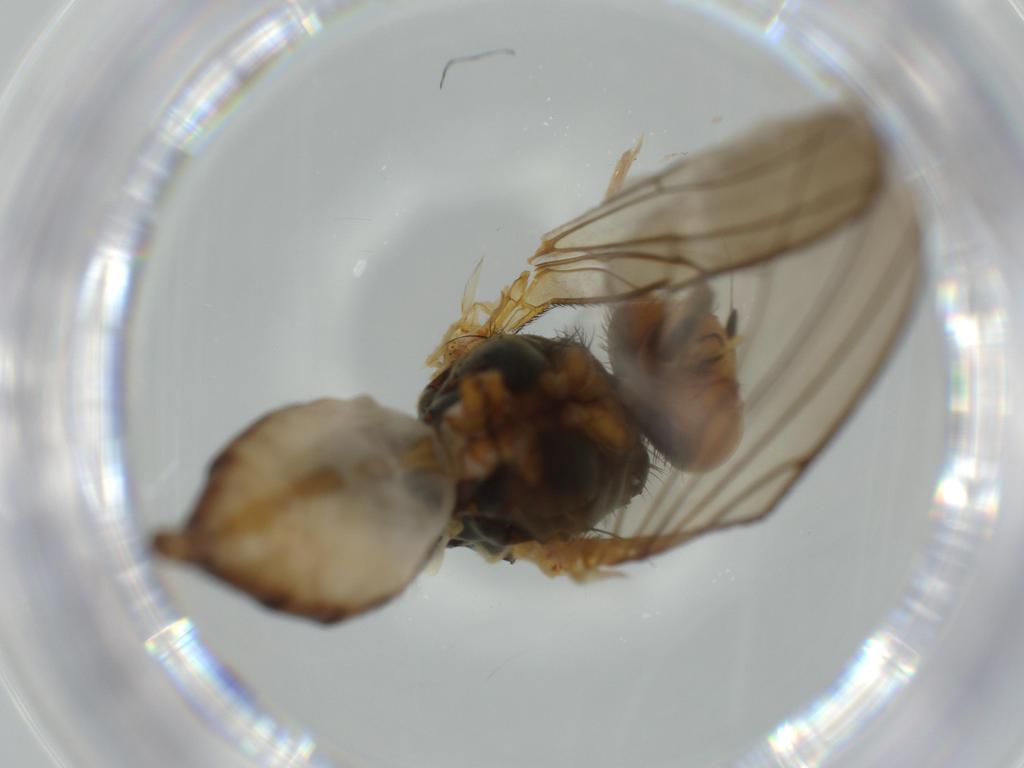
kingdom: Animalia
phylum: Arthropoda
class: Insecta
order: Diptera
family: Anthomyiidae
